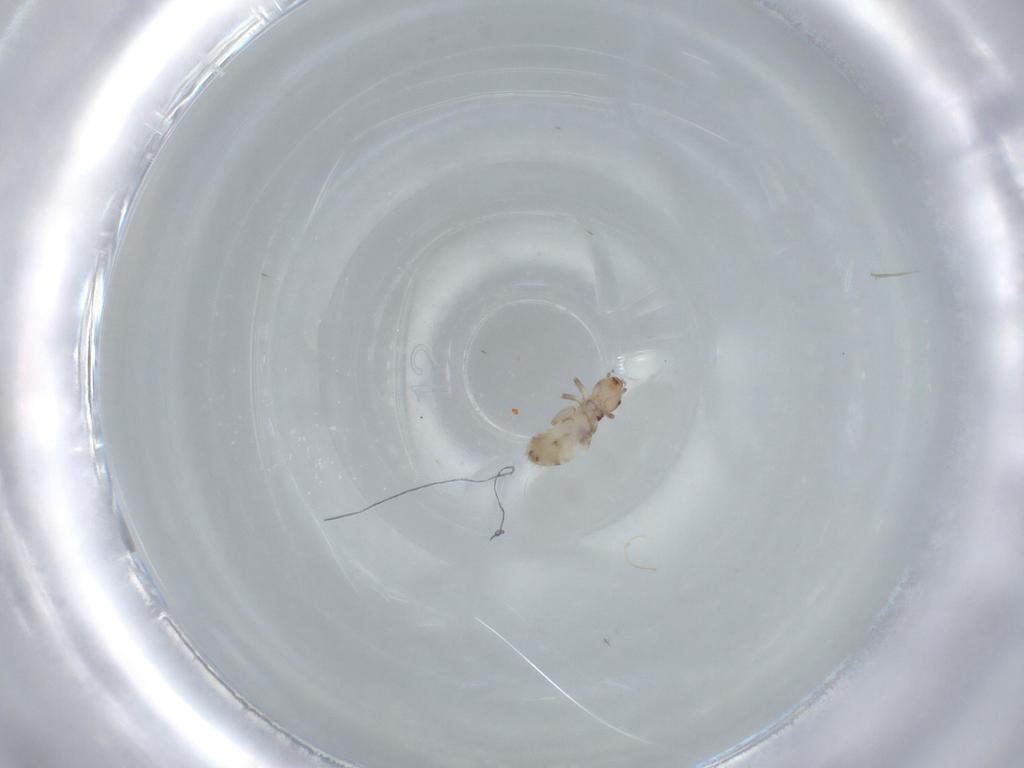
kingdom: Animalia
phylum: Arthropoda
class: Insecta
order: Psocodea
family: Liposcelididae
